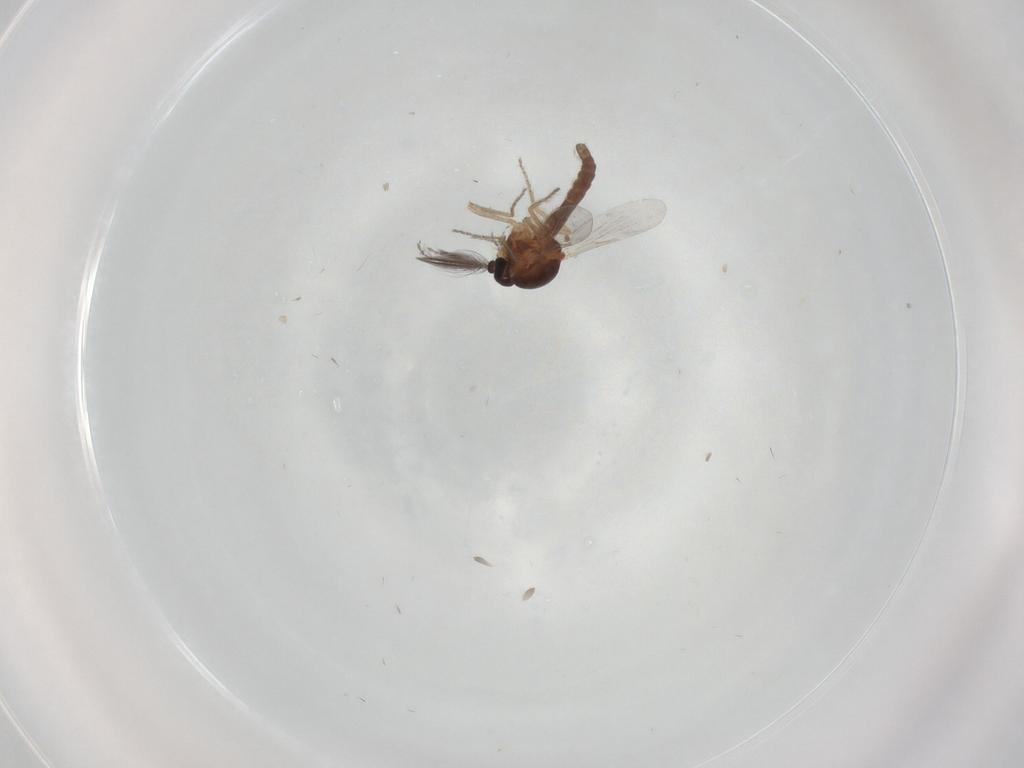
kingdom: Animalia
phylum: Arthropoda
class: Insecta
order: Diptera
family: Ceratopogonidae
